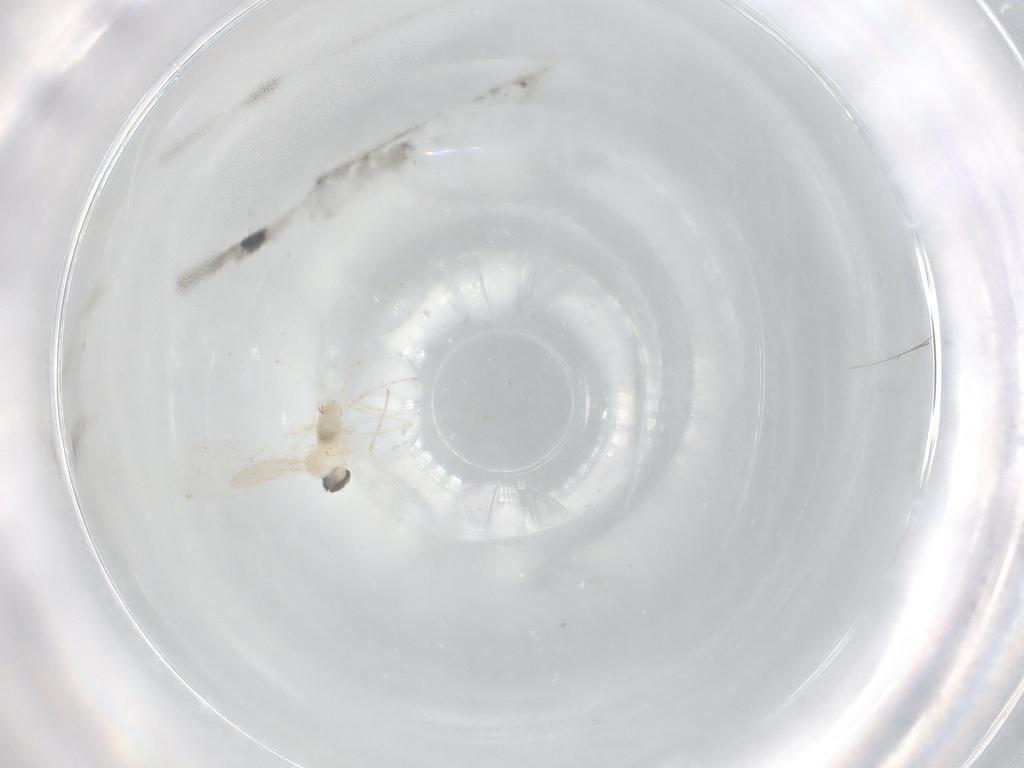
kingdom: Animalia
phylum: Arthropoda
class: Insecta
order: Diptera
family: Cecidomyiidae
